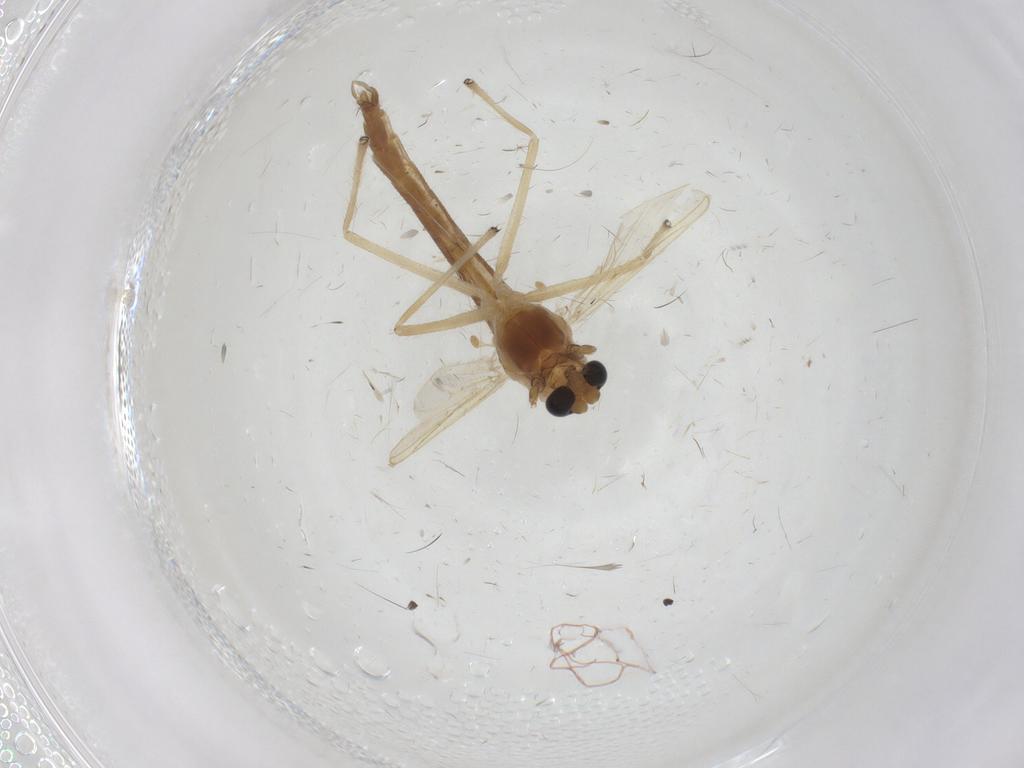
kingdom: Animalia
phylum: Arthropoda
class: Insecta
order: Diptera
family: Chironomidae
